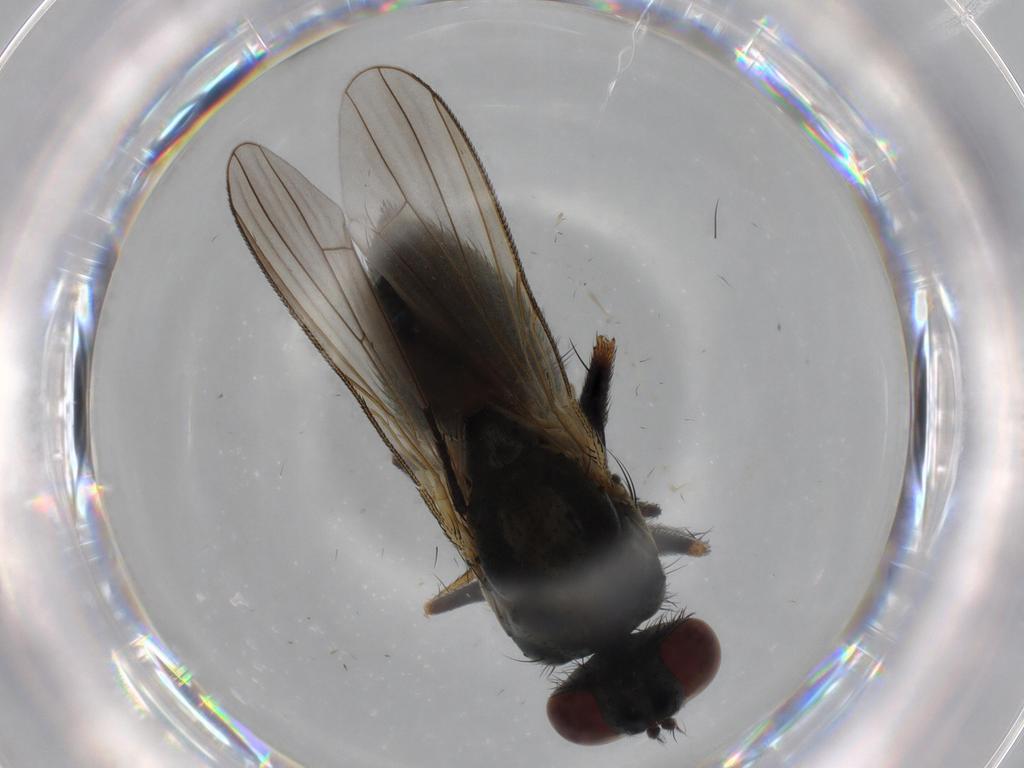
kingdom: Animalia
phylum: Arthropoda
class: Insecta
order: Diptera
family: Muscidae
